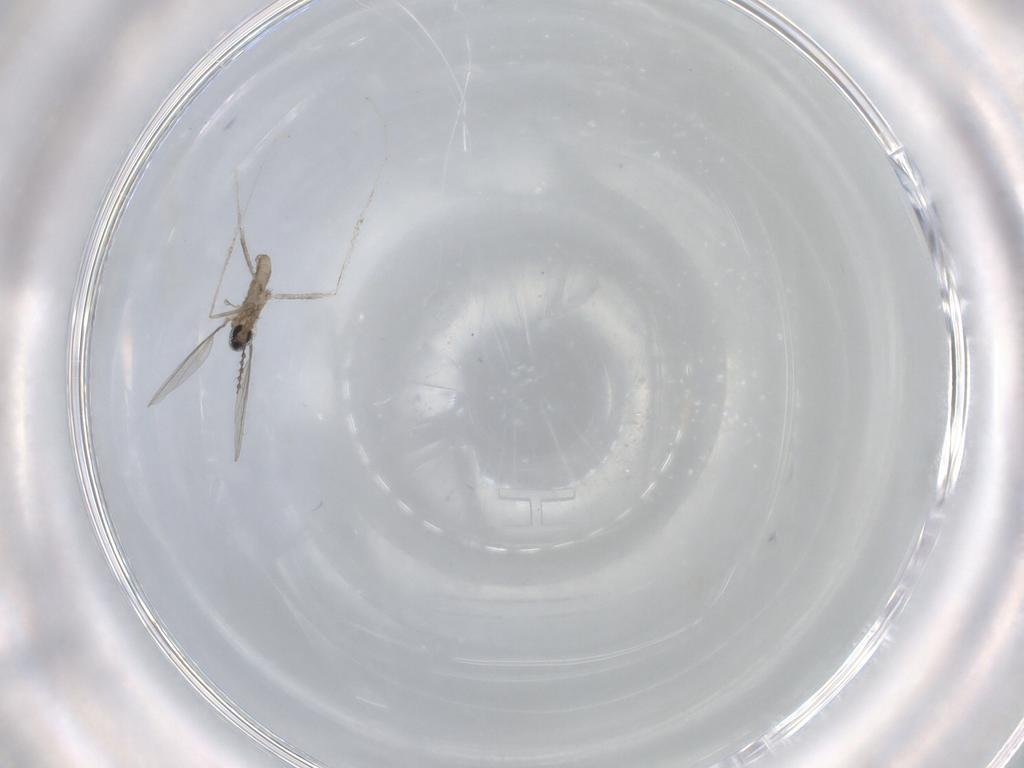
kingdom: Animalia
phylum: Arthropoda
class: Insecta
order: Diptera
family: Cecidomyiidae
